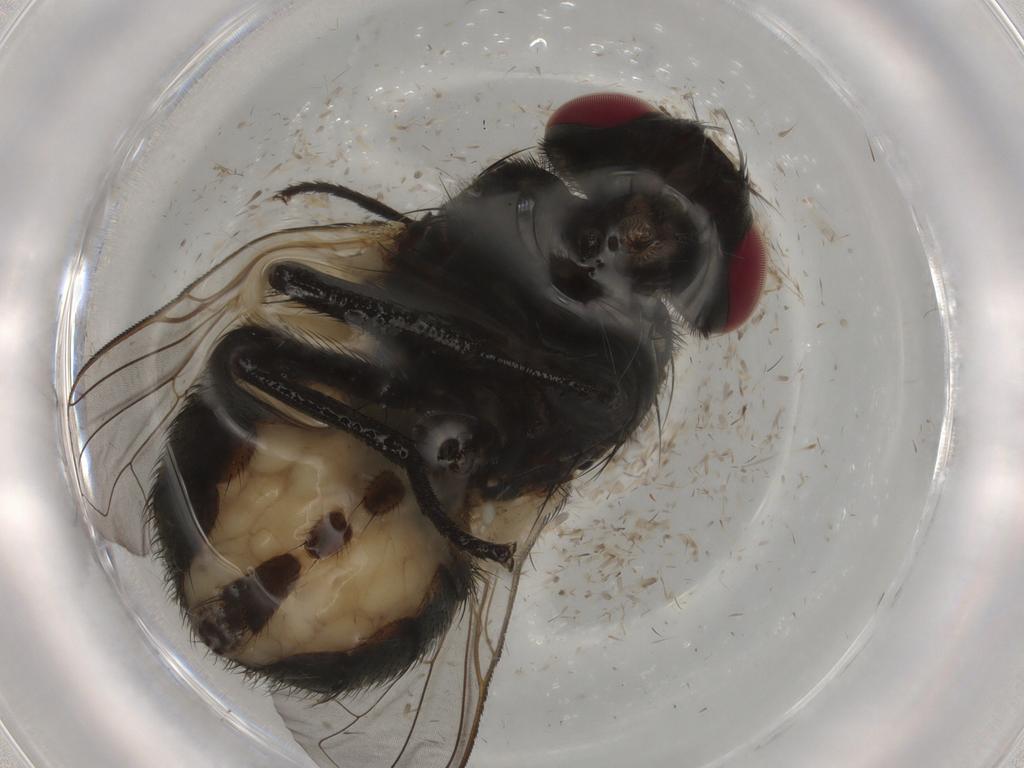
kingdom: Animalia
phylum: Arthropoda
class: Insecta
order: Diptera
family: Muscidae
